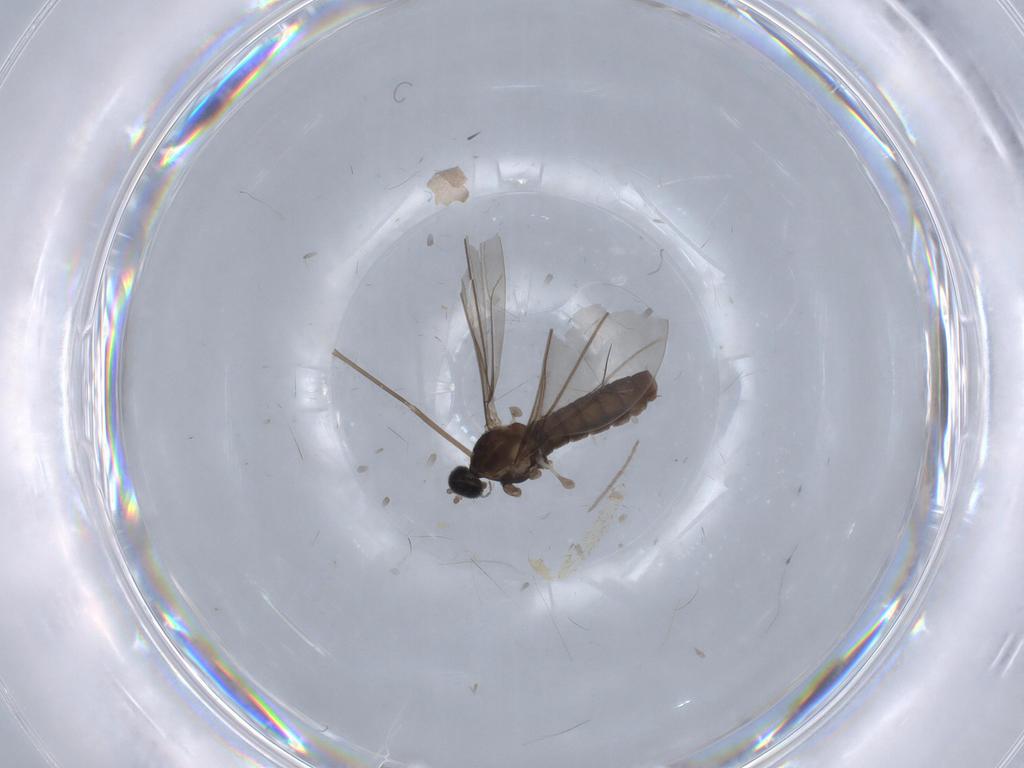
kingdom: Animalia
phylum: Arthropoda
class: Insecta
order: Diptera
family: Cecidomyiidae
